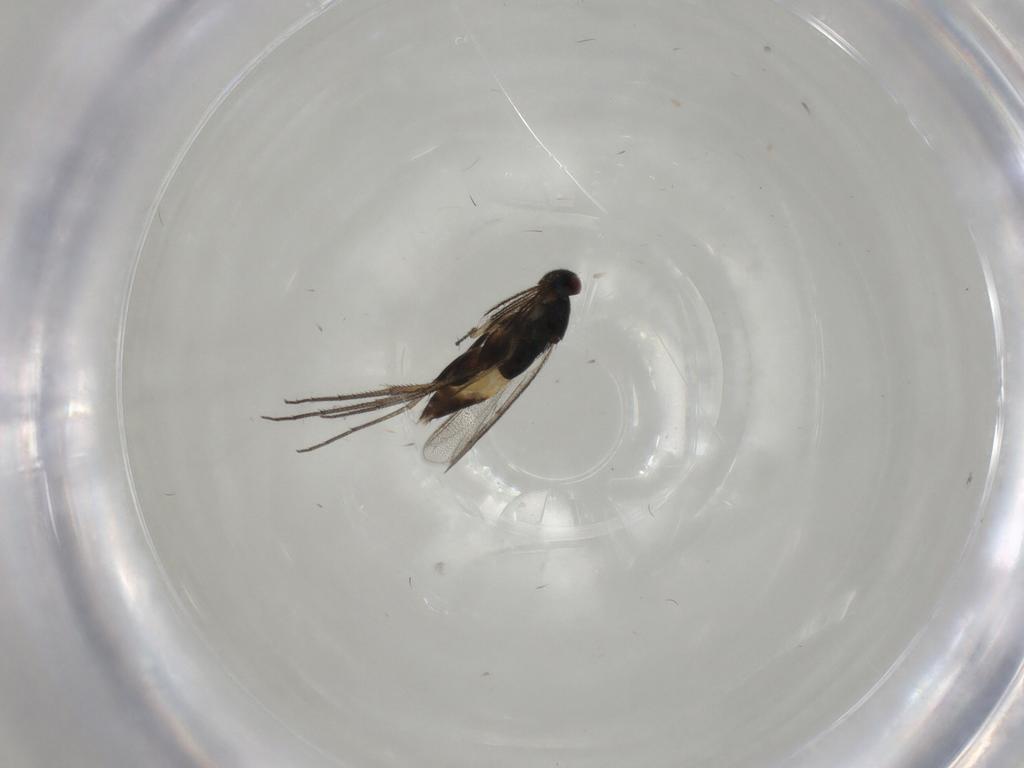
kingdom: Animalia
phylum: Arthropoda
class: Insecta
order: Hymenoptera
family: Eulophidae
